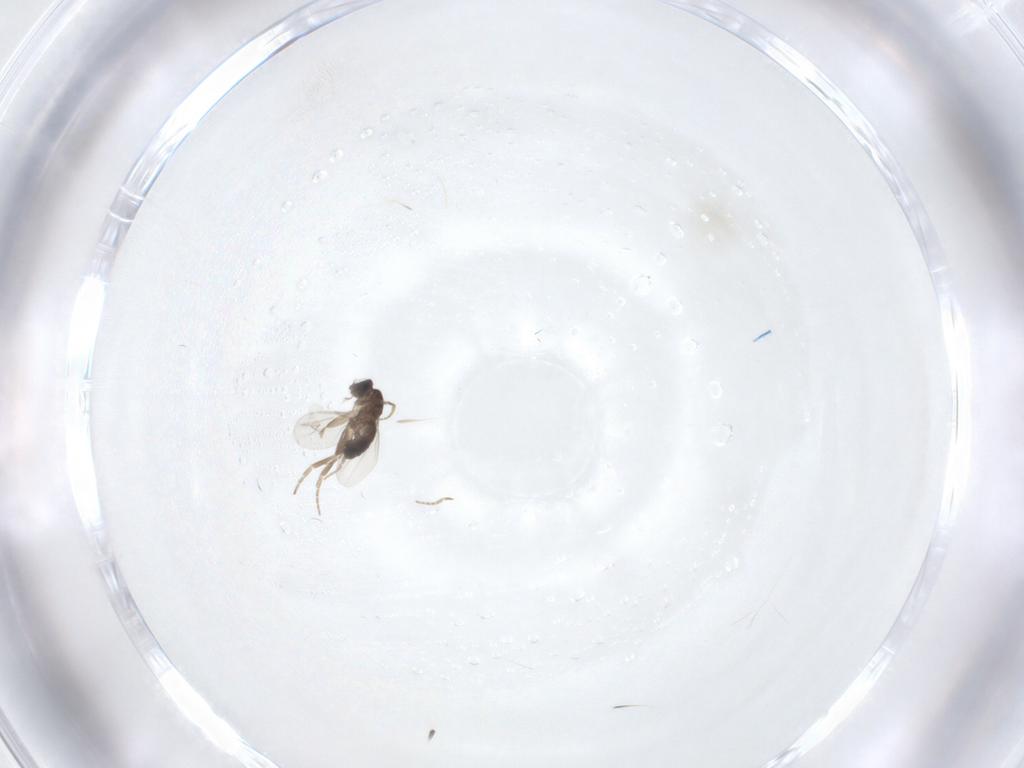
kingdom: Animalia
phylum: Arthropoda
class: Insecta
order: Diptera
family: Phoridae
